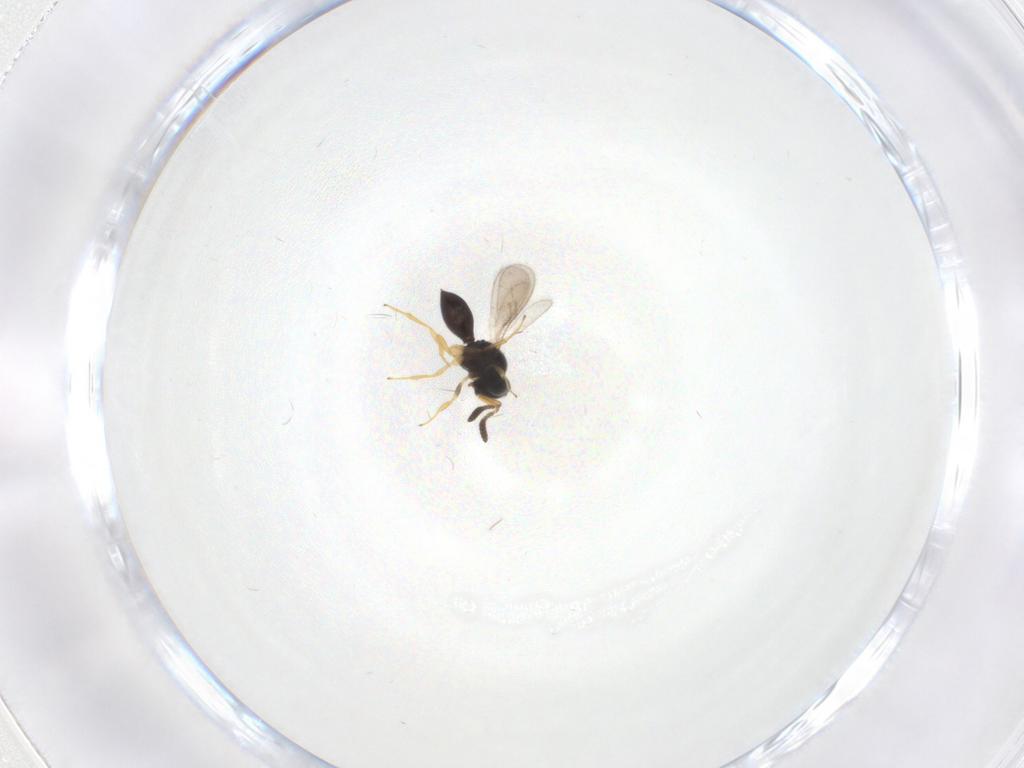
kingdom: Animalia
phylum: Arthropoda
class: Insecta
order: Hymenoptera
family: Scelionidae
